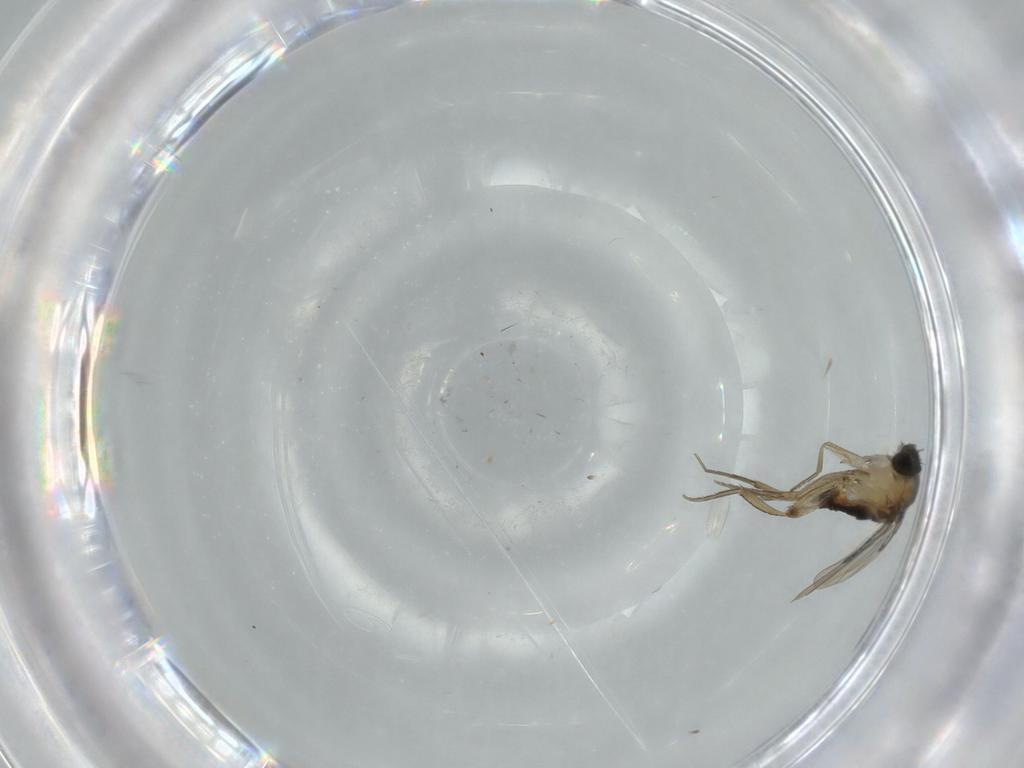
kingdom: Animalia
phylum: Arthropoda
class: Insecta
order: Diptera
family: Phoridae
